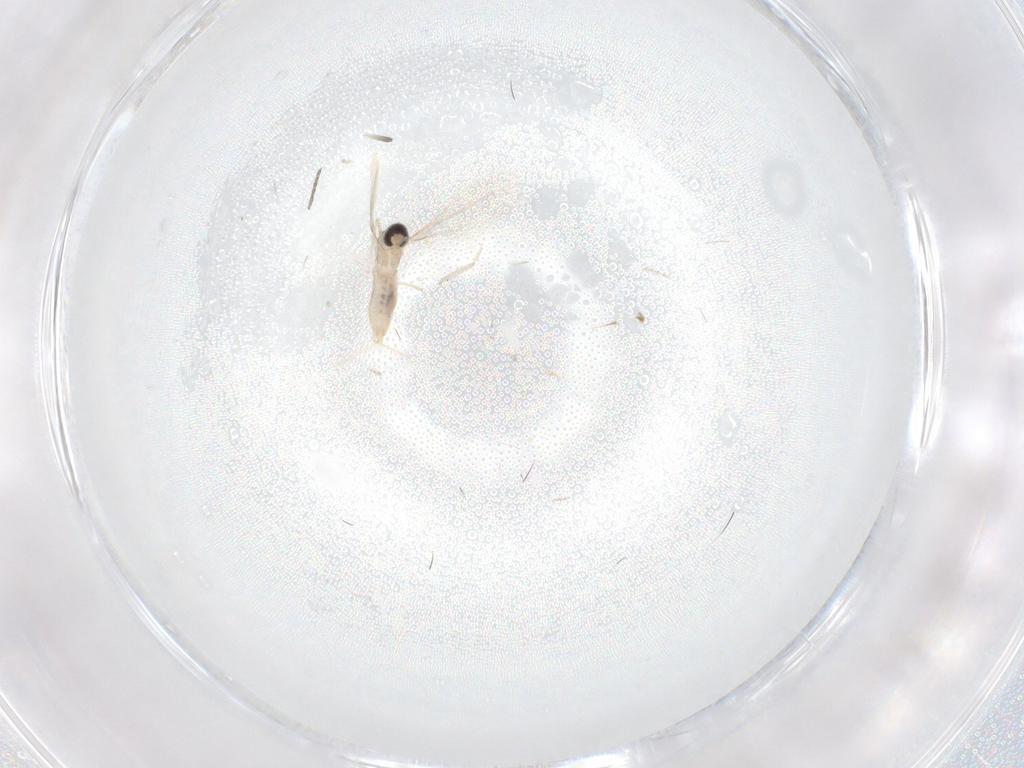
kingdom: Animalia
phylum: Arthropoda
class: Insecta
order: Diptera
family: Cecidomyiidae
